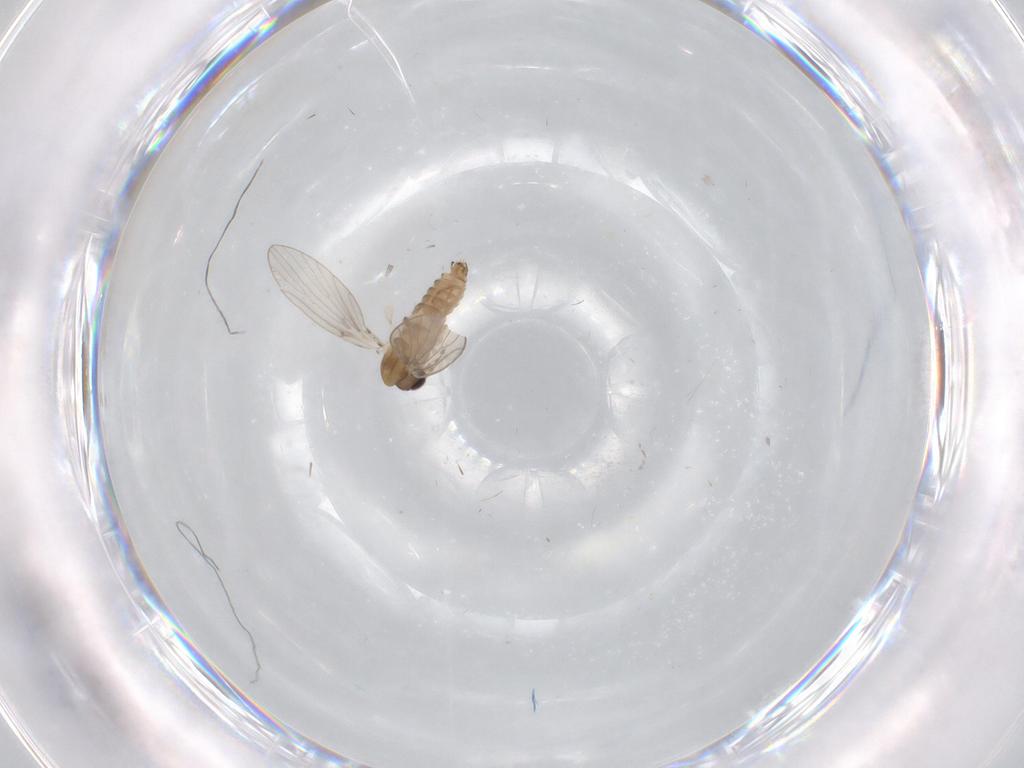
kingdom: Animalia
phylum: Arthropoda
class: Insecta
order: Diptera
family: Psychodidae
